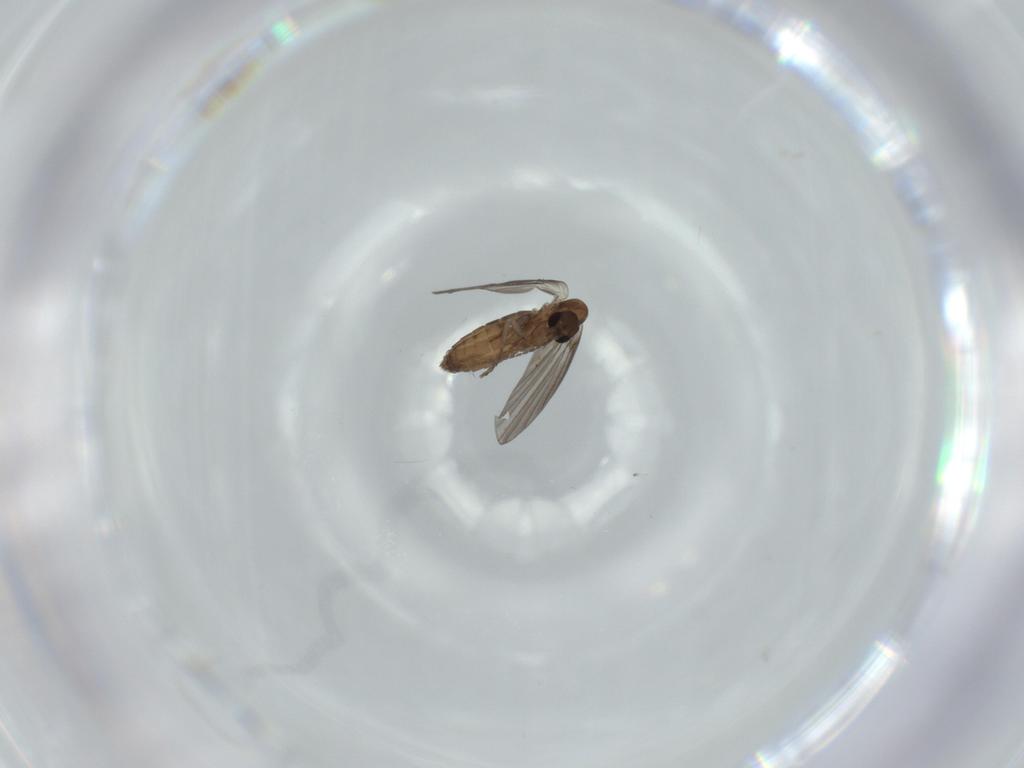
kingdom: Animalia
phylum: Arthropoda
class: Insecta
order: Diptera
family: Psychodidae
